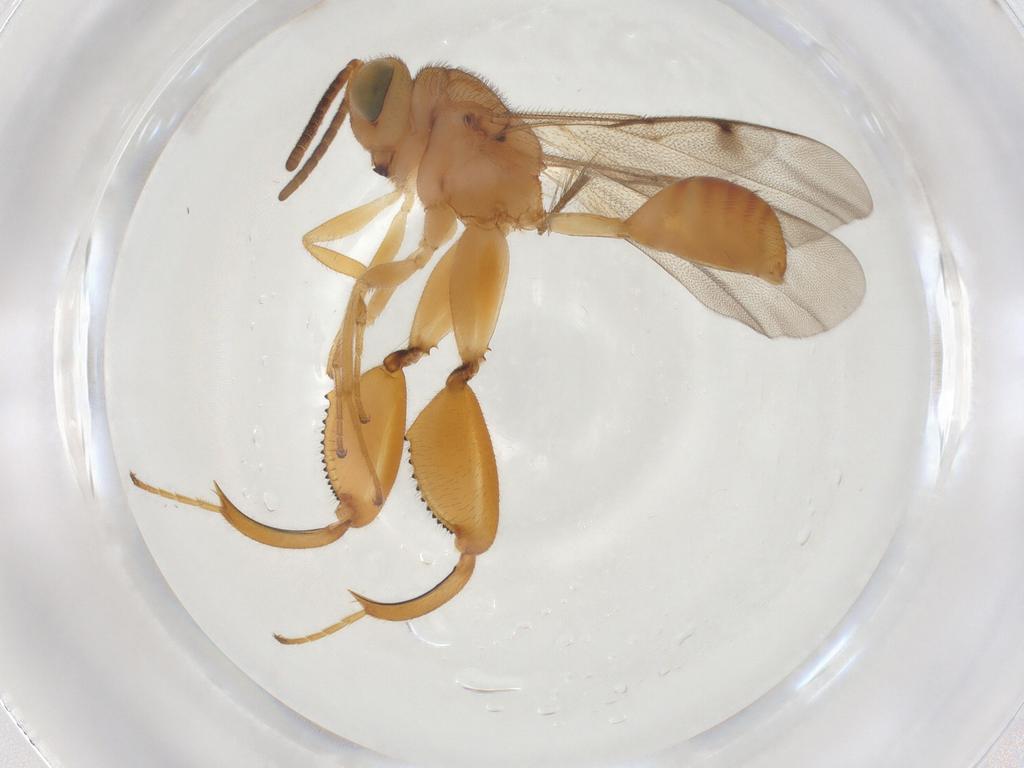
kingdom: Animalia
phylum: Arthropoda
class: Insecta
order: Hymenoptera
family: Chalcididae
